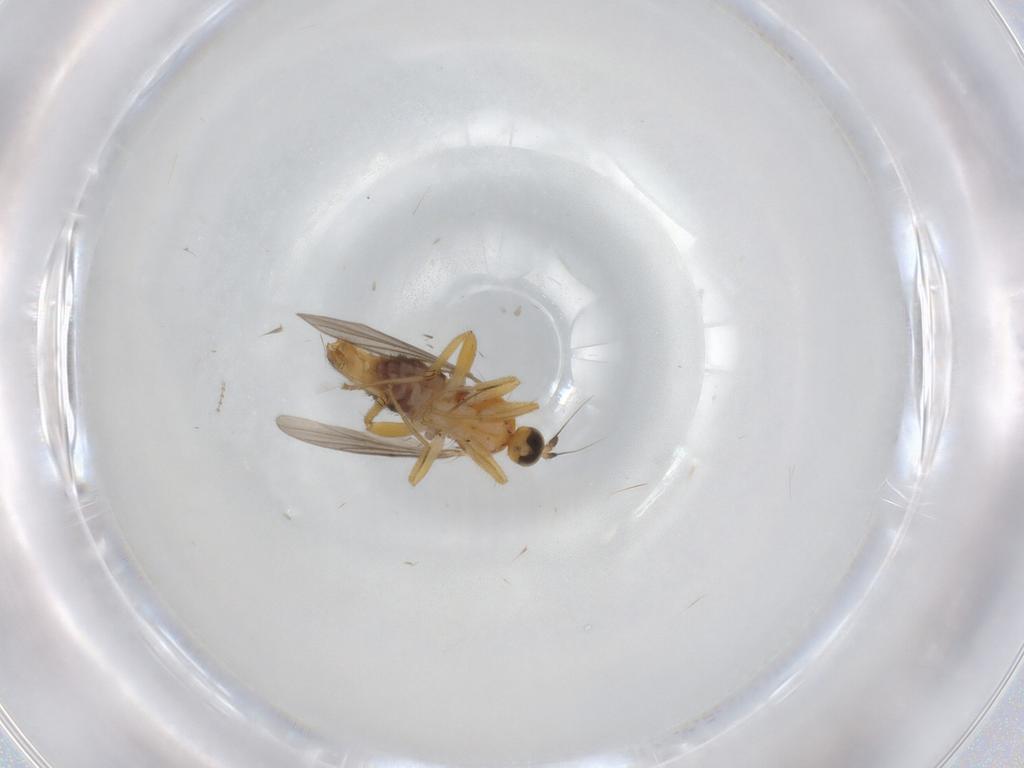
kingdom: Animalia
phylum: Arthropoda
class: Insecta
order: Diptera
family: Hybotidae
